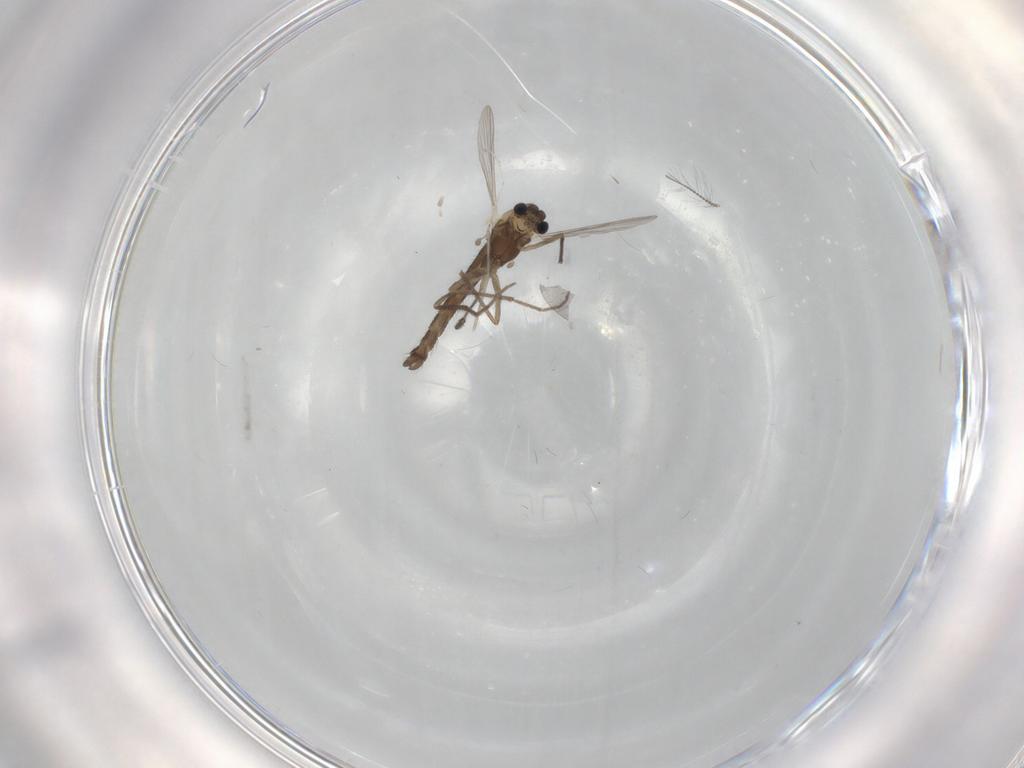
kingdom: Animalia
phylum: Arthropoda
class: Insecta
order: Diptera
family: Chironomidae
